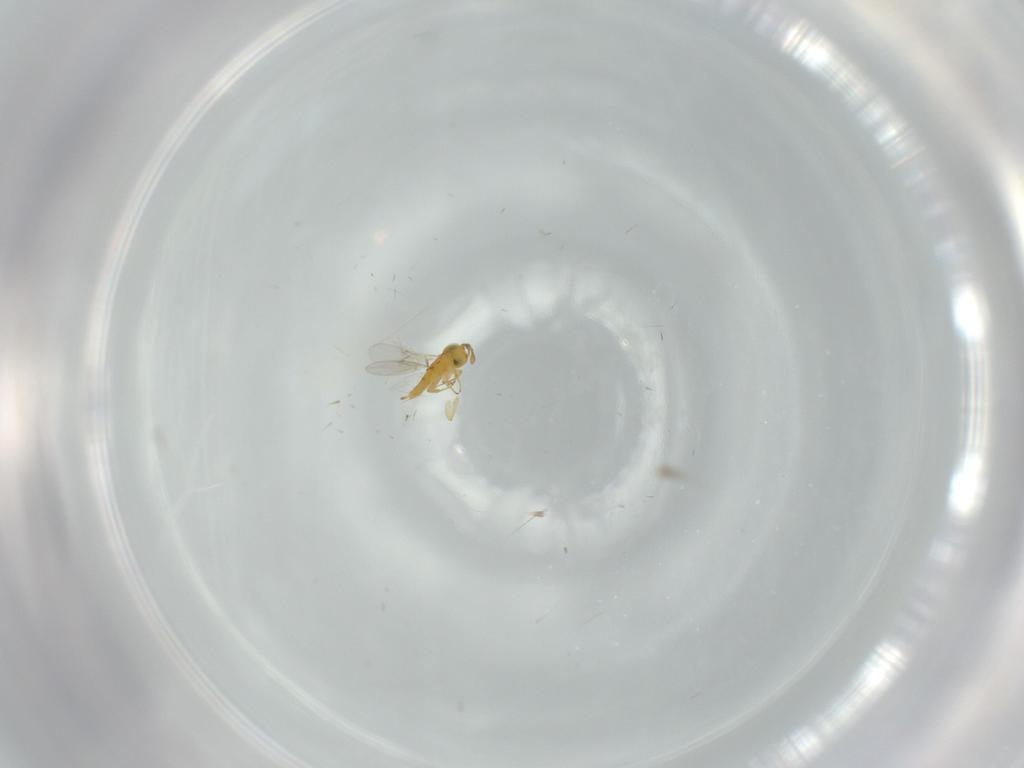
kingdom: Animalia
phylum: Arthropoda
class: Insecta
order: Hymenoptera
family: Encyrtidae
